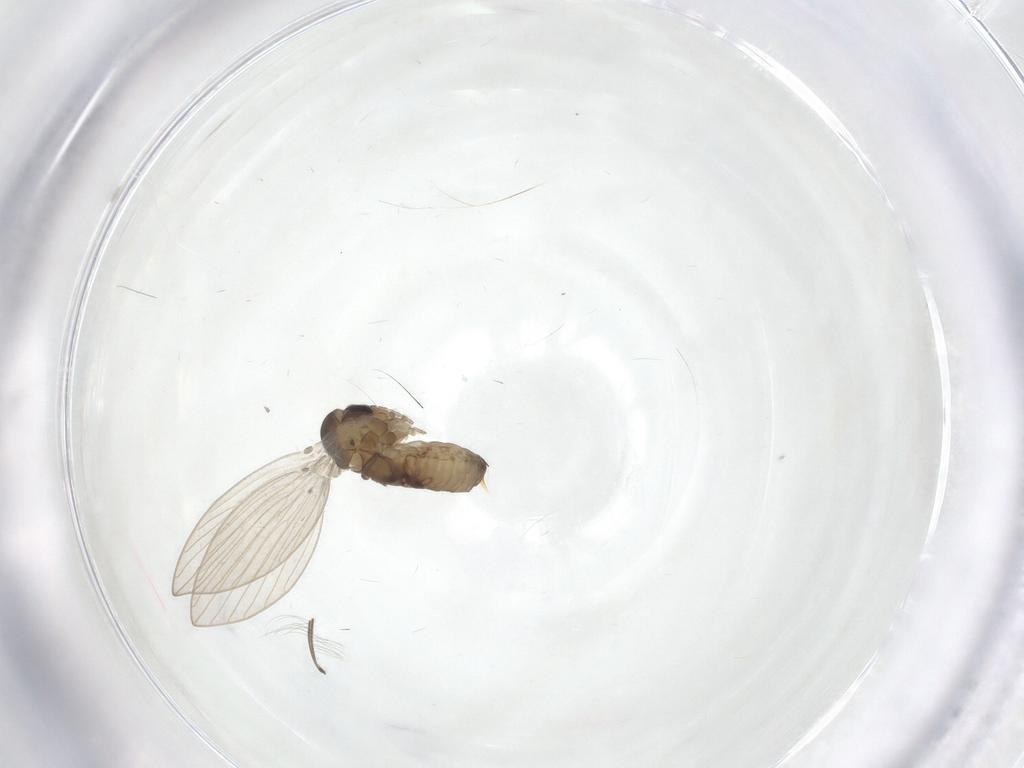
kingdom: Animalia
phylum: Arthropoda
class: Insecta
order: Diptera
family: Psychodidae
